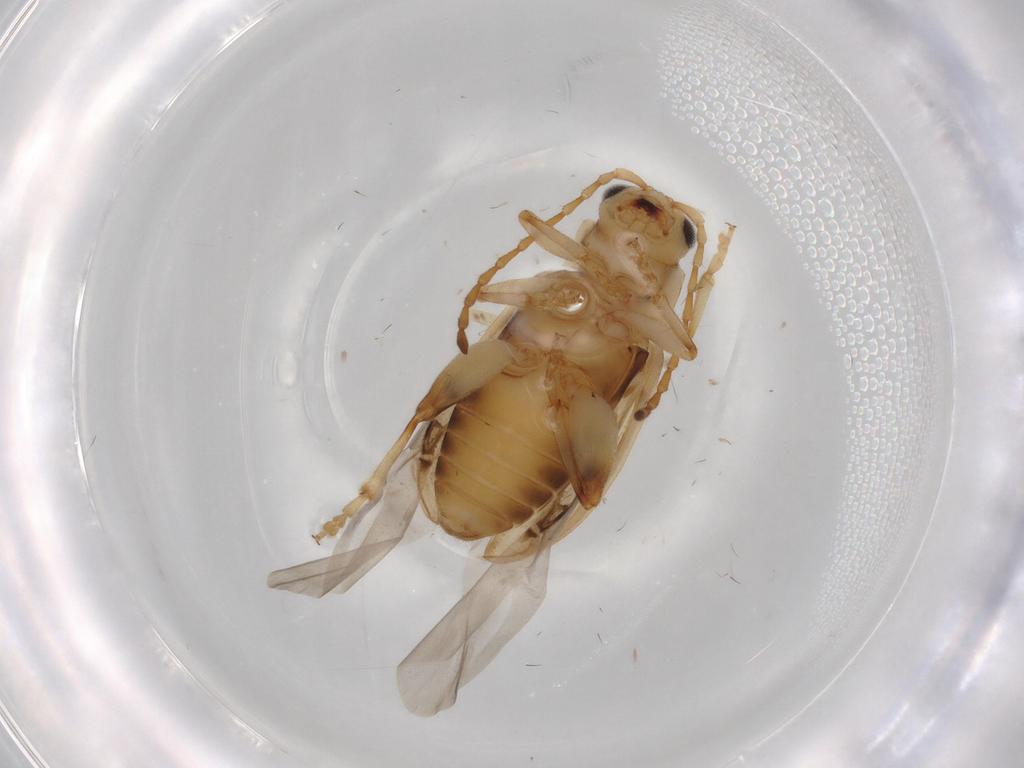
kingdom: Animalia
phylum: Arthropoda
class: Insecta
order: Coleoptera
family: Chrysomelidae
